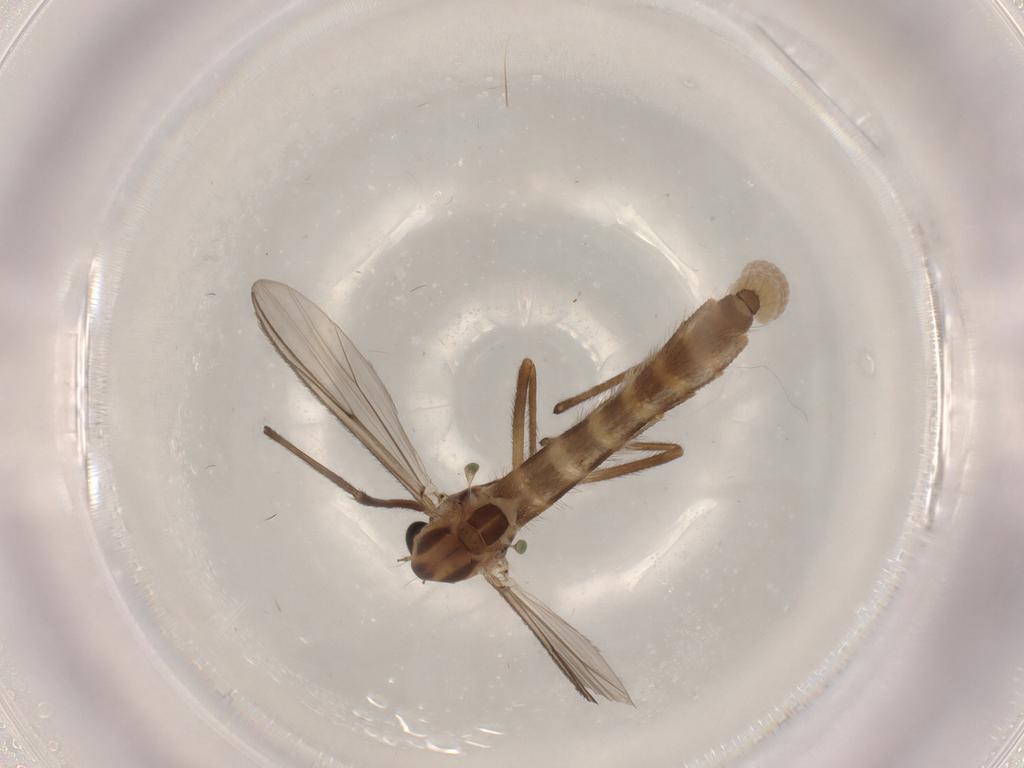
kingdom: Animalia
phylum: Arthropoda
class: Insecta
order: Diptera
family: Chironomidae
